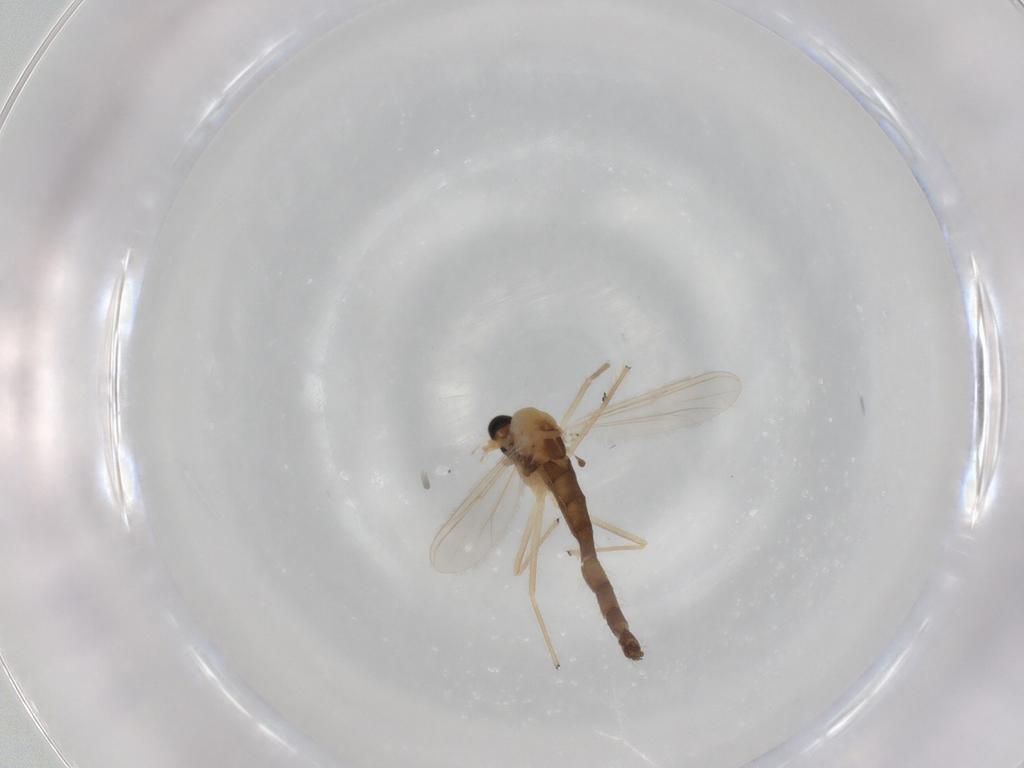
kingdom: Animalia
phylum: Arthropoda
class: Insecta
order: Diptera
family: Chironomidae
